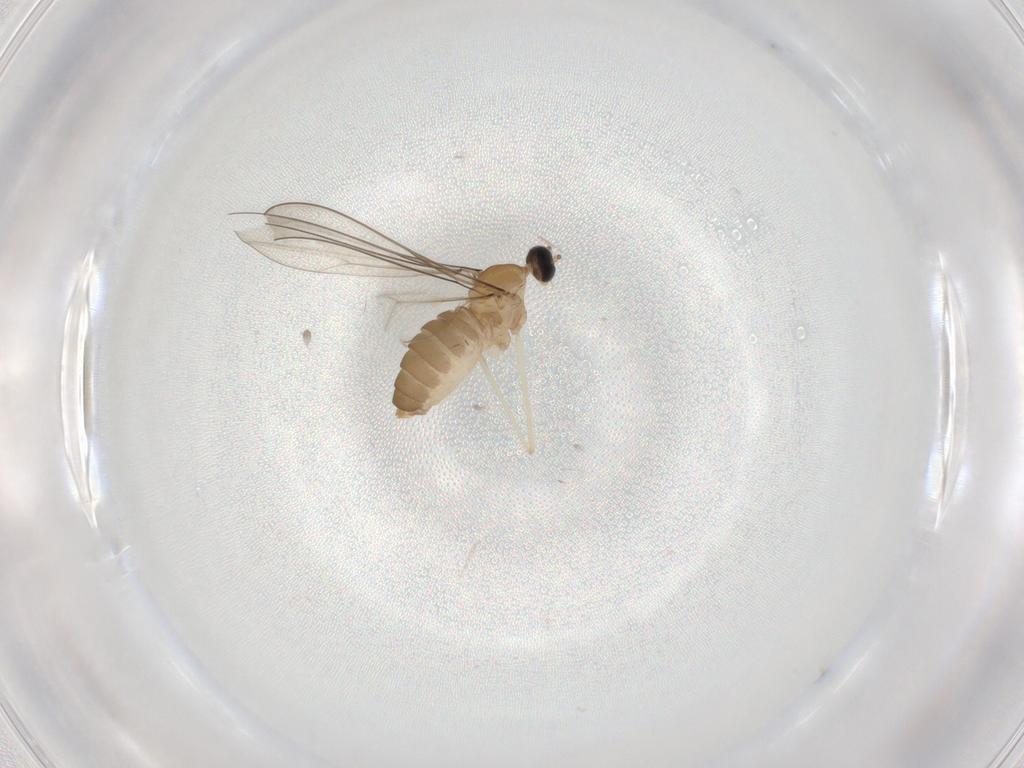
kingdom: Animalia
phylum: Arthropoda
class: Insecta
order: Diptera
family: Cecidomyiidae
